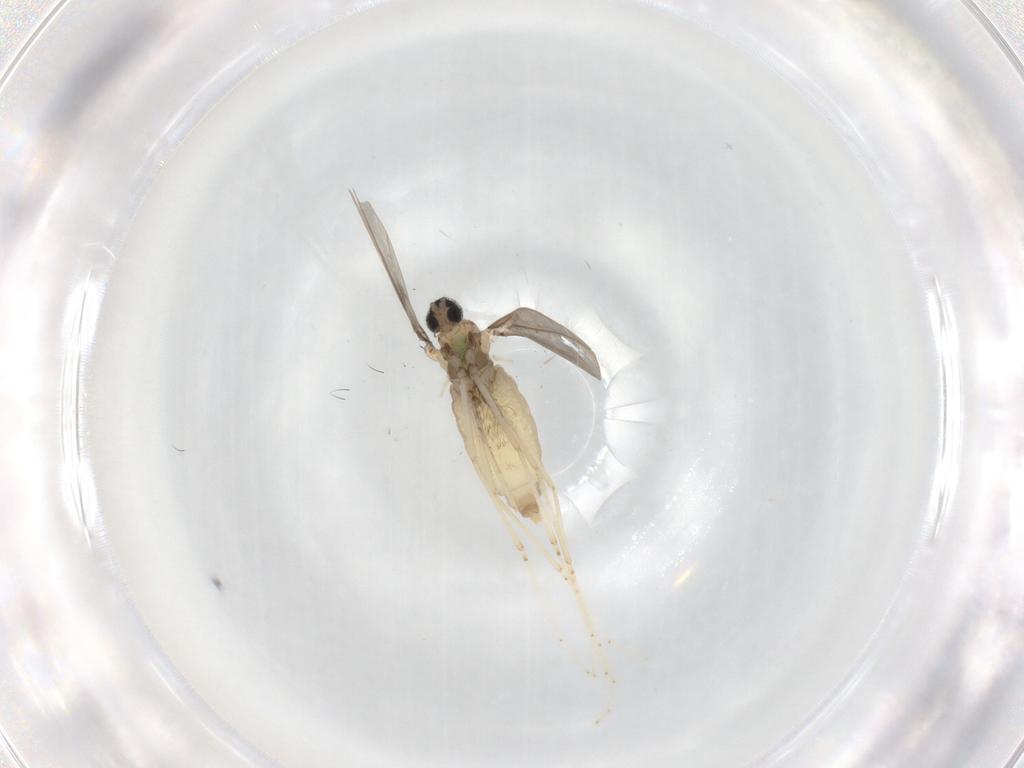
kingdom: Animalia
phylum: Arthropoda
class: Insecta
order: Diptera
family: Cecidomyiidae
